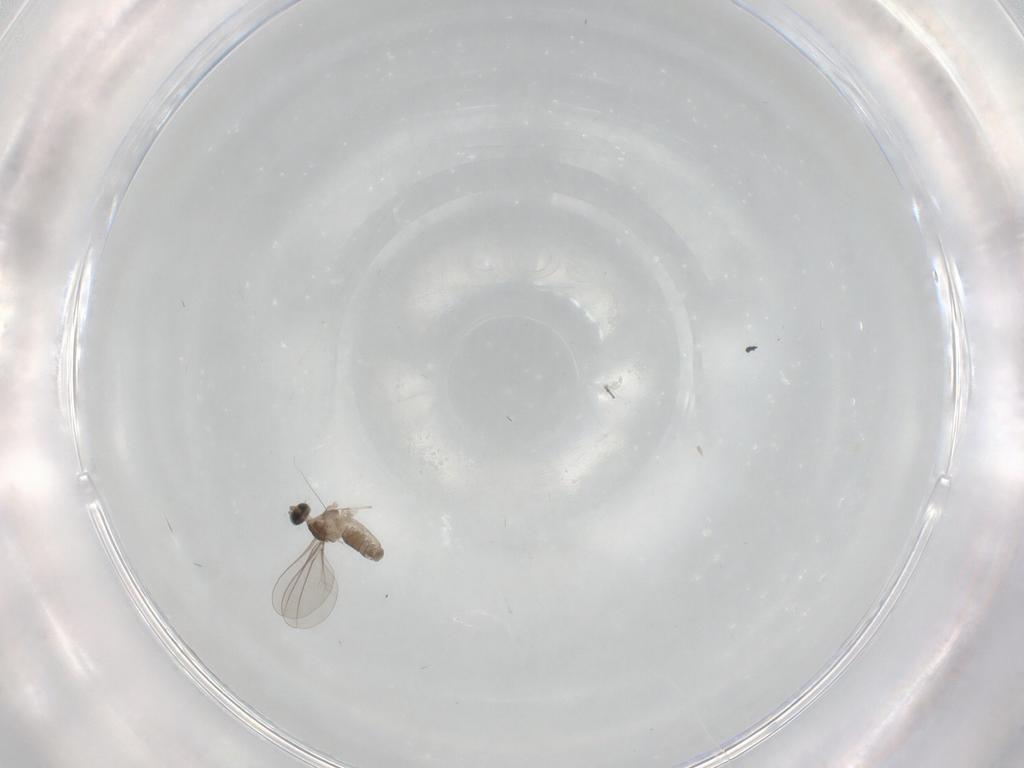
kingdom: Animalia
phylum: Arthropoda
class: Insecta
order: Diptera
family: Cecidomyiidae
